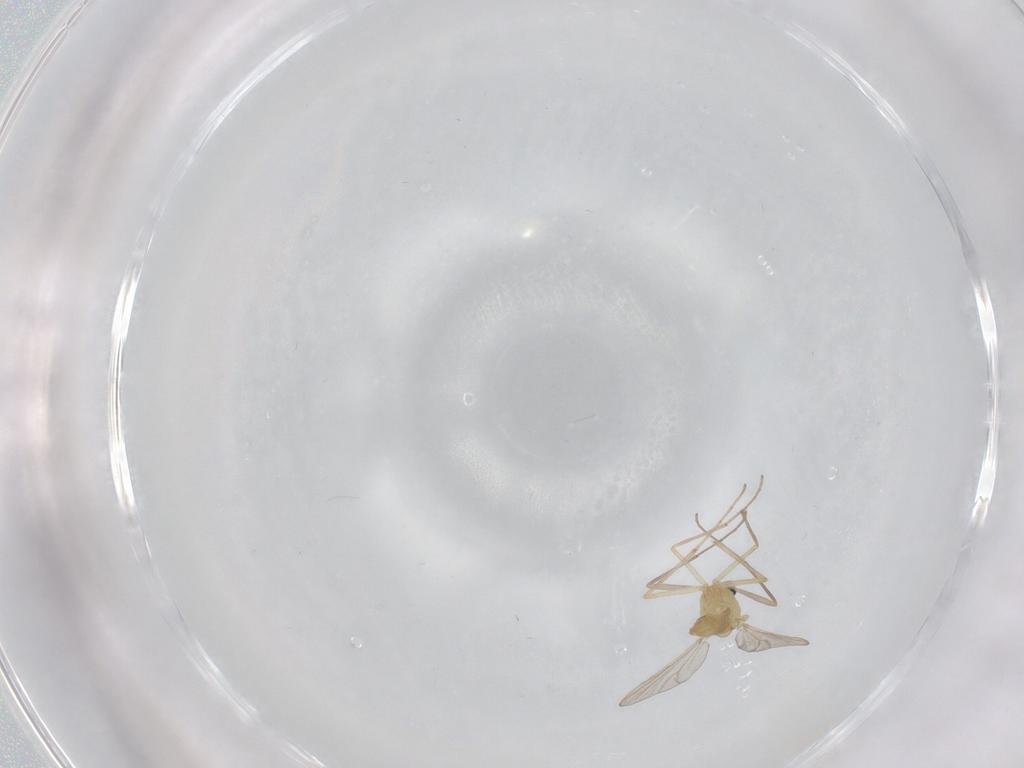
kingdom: Animalia
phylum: Arthropoda
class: Insecta
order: Diptera
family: Chironomidae
